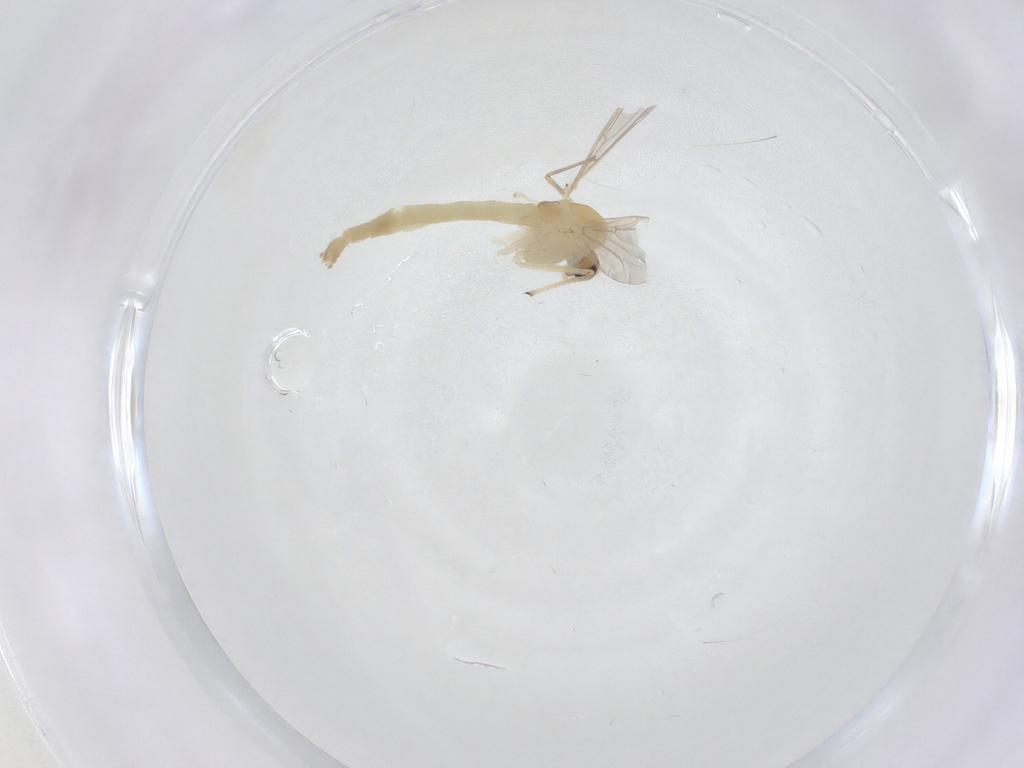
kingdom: Animalia
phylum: Arthropoda
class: Insecta
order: Diptera
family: Chironomidae
